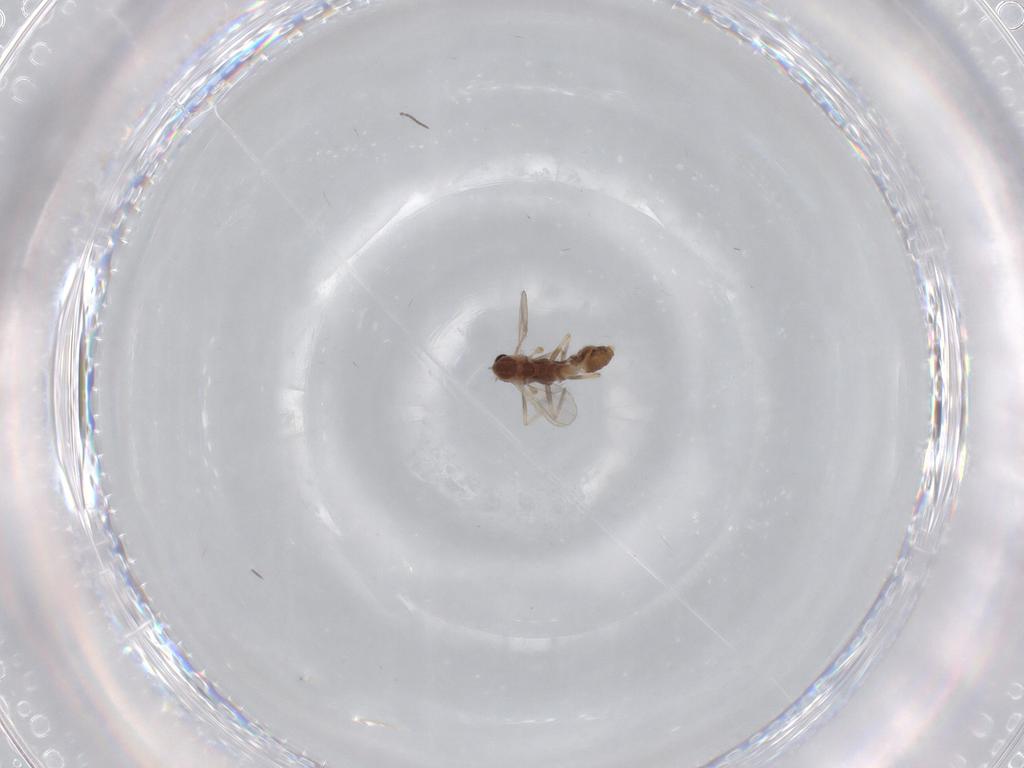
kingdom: Animalia
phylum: Arthropoda
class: Insecta
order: Diptera
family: Chironomidae
